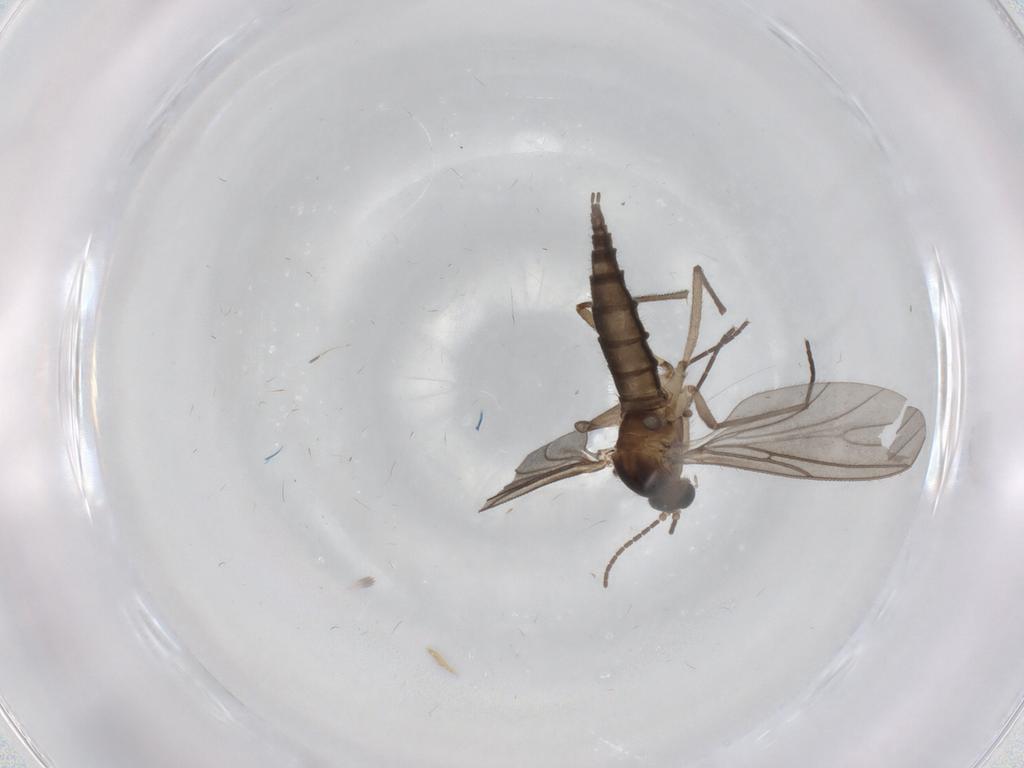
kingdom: Animalia
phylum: Arthropoda
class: Insecta
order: Diptera
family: Psychodidae
